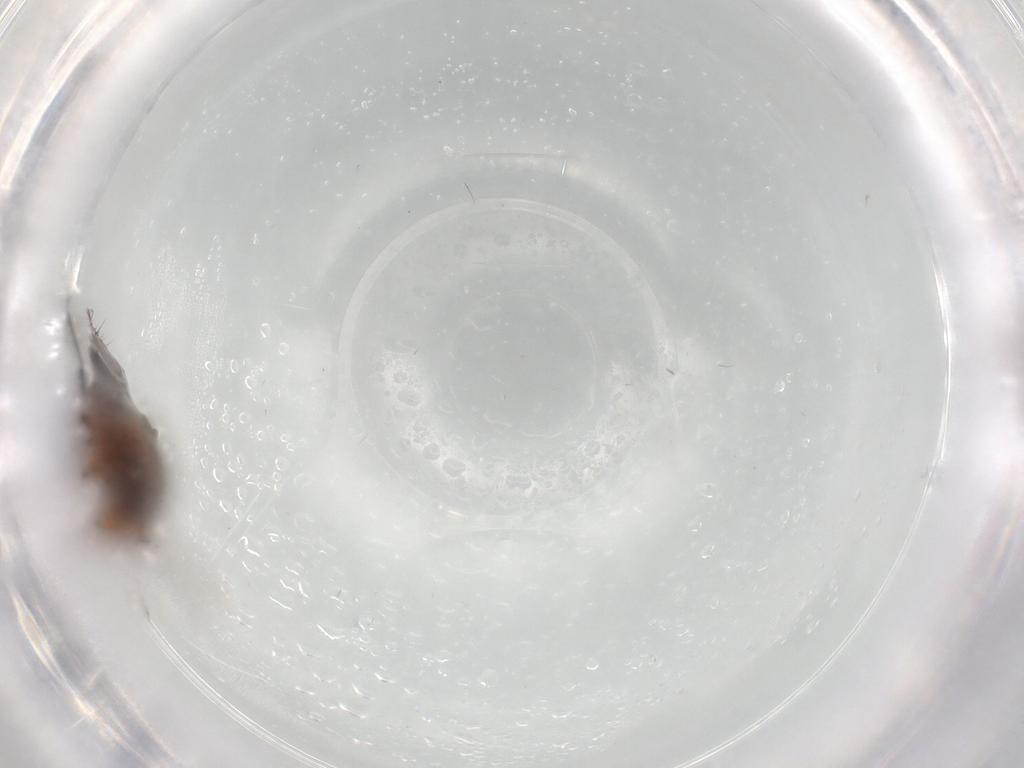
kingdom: Animalia
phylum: Arthropoda
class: Insecta
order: Coleoptera
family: Staphylinidae
